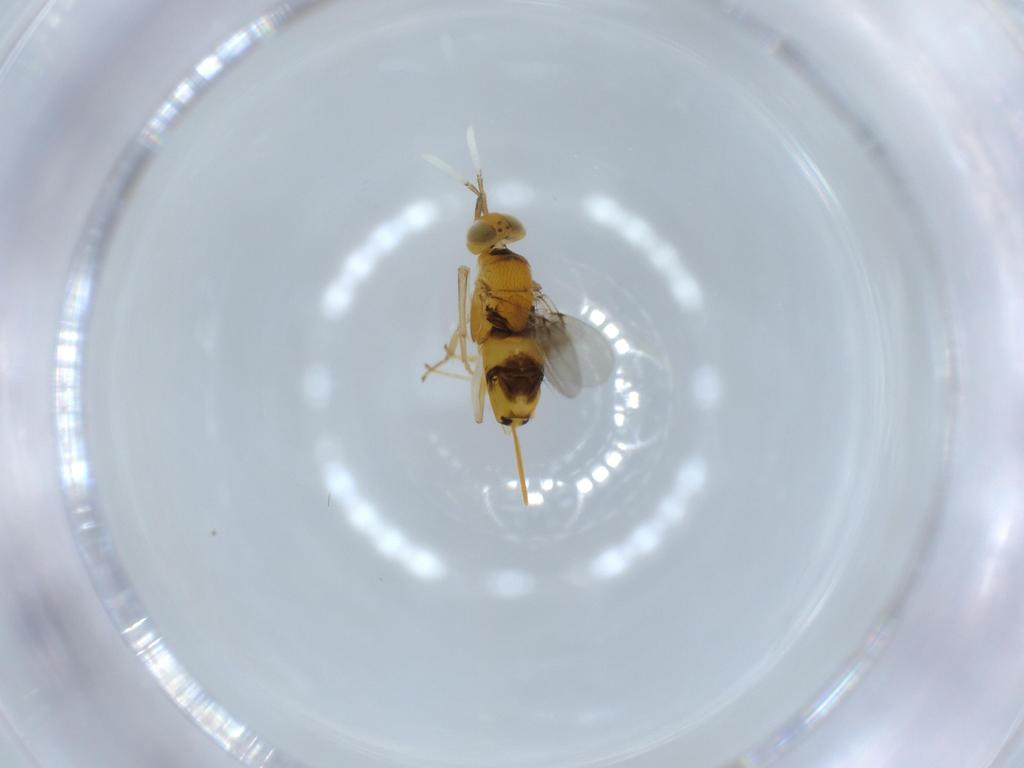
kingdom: Animalia
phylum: Arthropoda
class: Insecta
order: Hymenoptera
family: Encyrtidae
